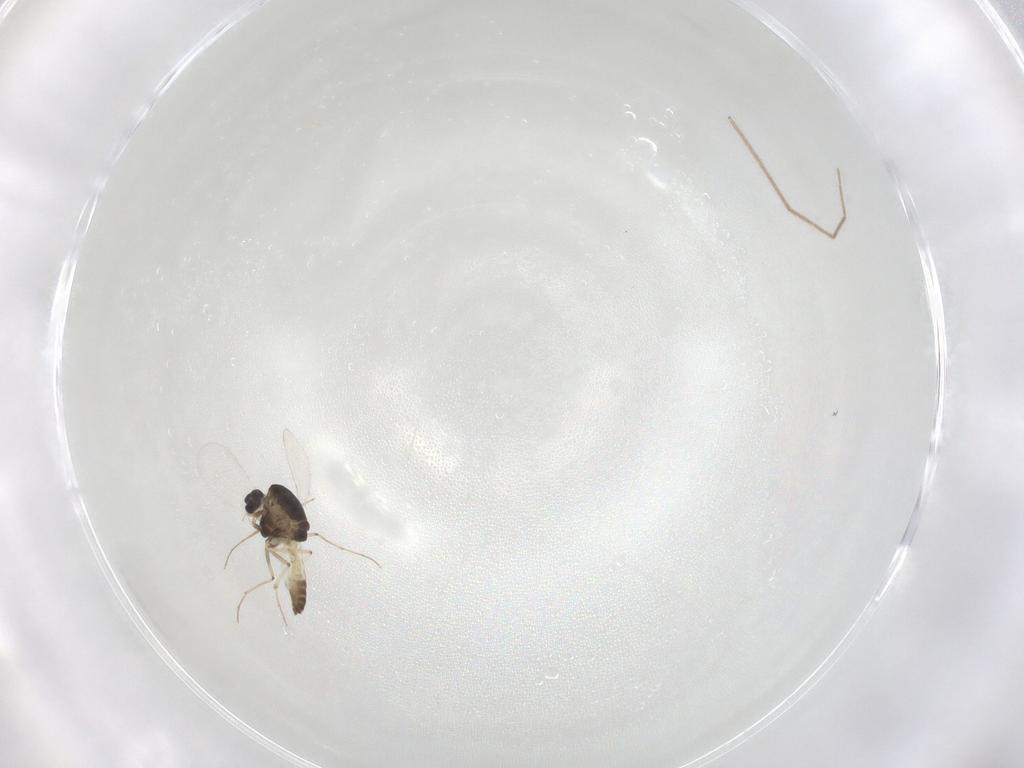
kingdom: Animalia
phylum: Arthropoda
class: Insecta
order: Diptera
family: Chironomidae
